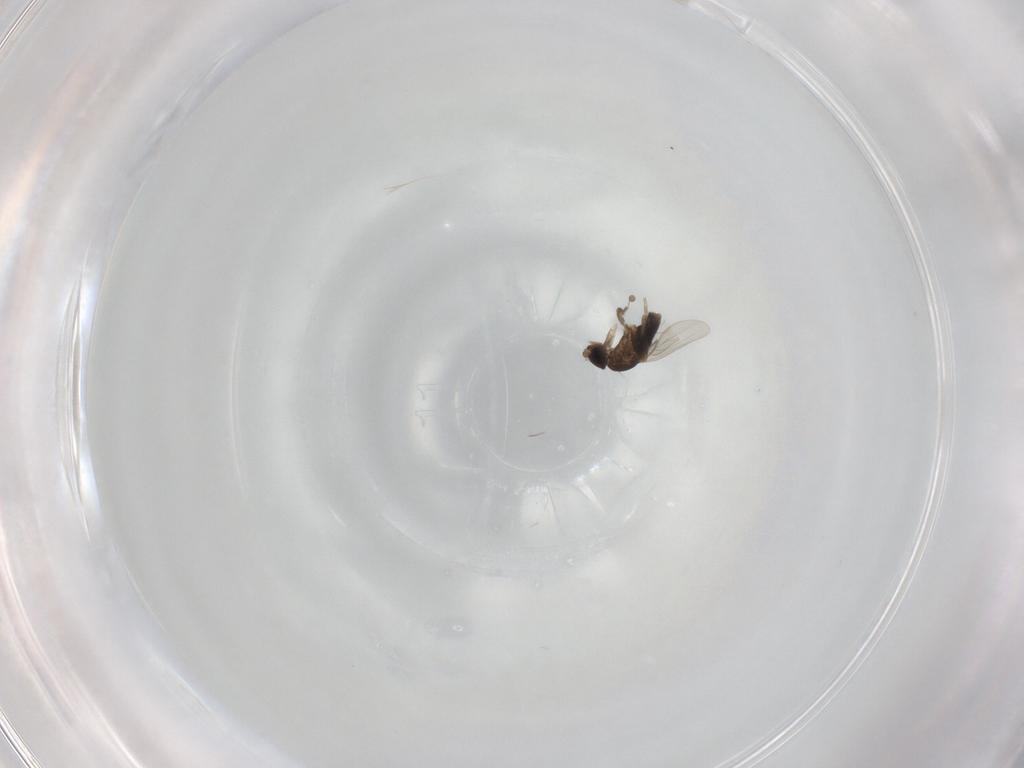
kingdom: Animalia
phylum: Arthropoda
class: Insecta
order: Diptera
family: Phoridae
